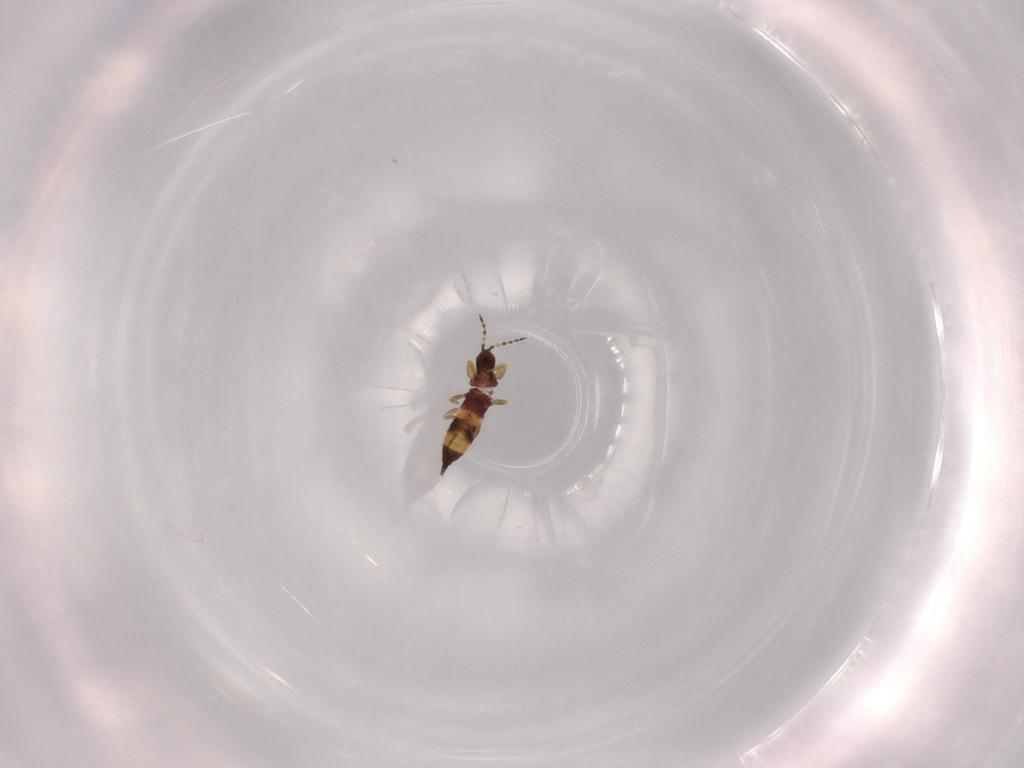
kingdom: Animalia
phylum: Arthropoda
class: Insecta
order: Thysanoptera
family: Phlaeothripidae
